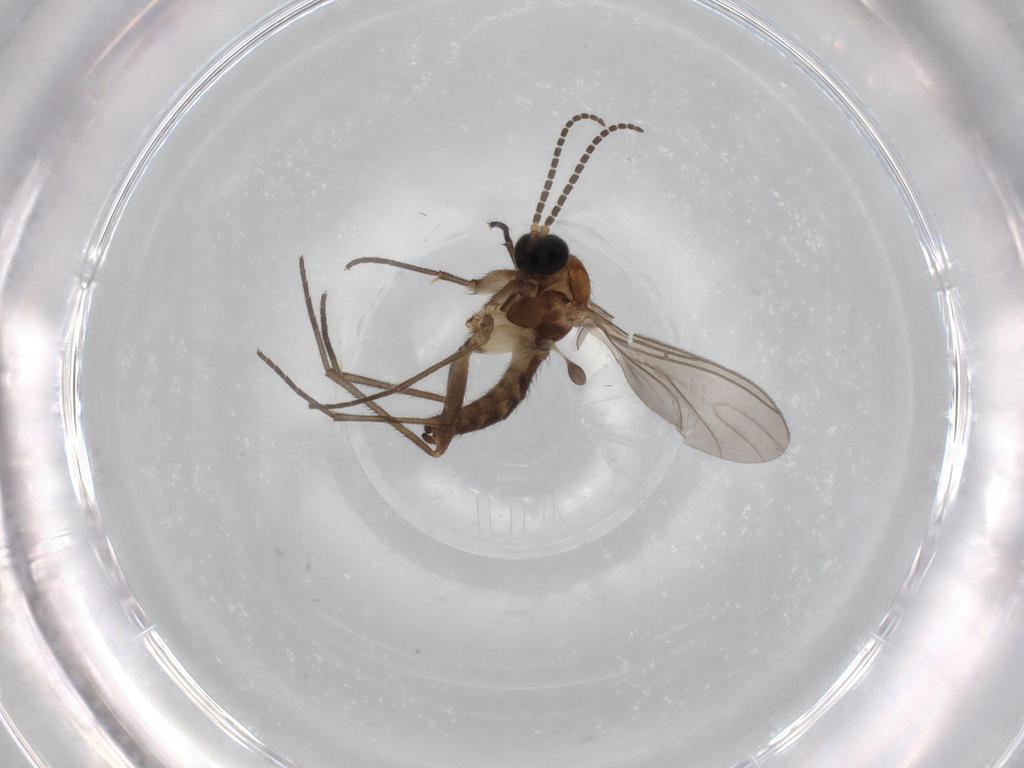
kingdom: Animalia
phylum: Arthropoda
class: Insecta
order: Diptera
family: Sciaridae
